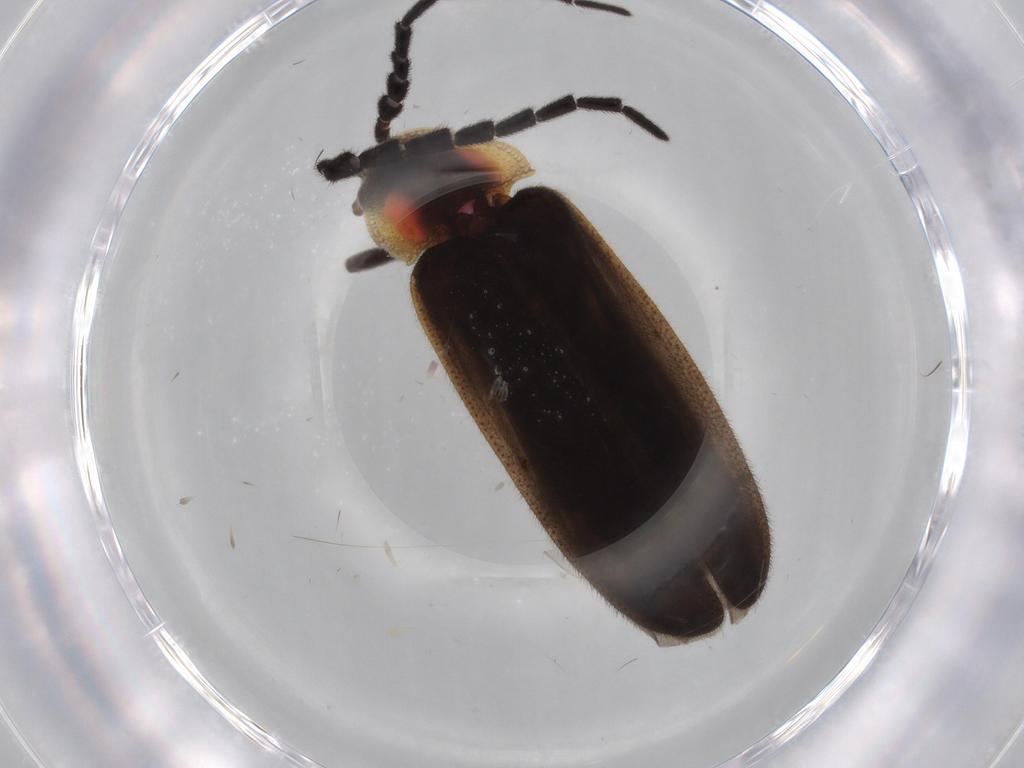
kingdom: Animalia
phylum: Arthropoda
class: Insecta
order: Coleoptera
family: Lampyridae
